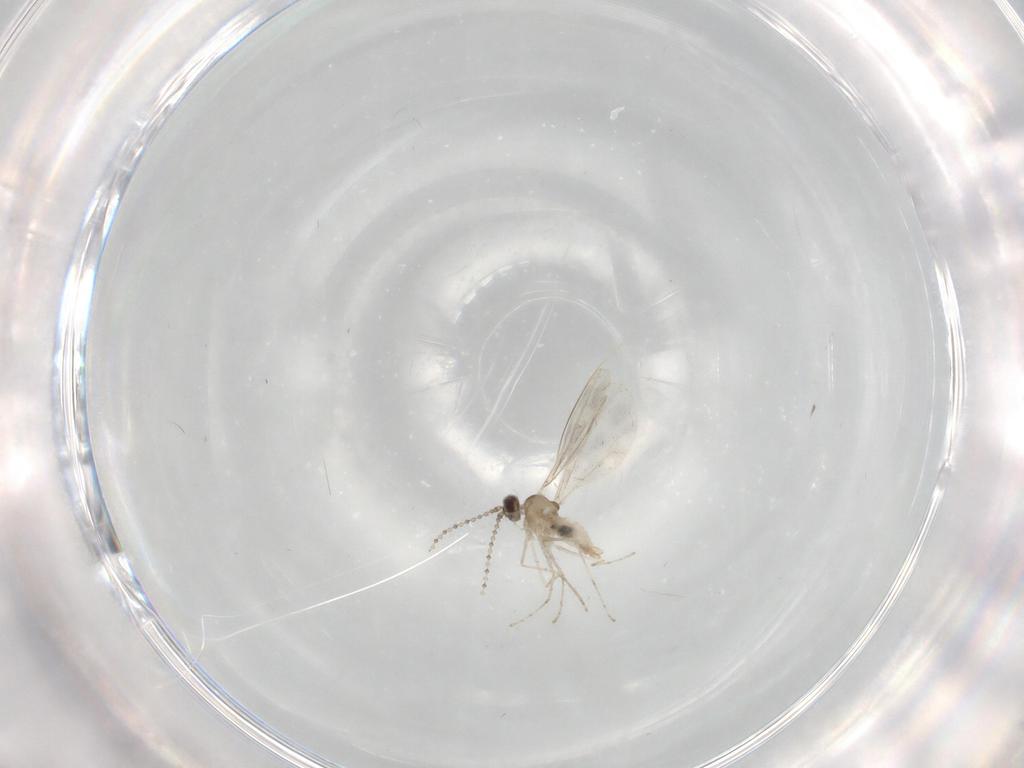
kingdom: Animalia
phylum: Arthropoda
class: Insecta
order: Diptera
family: Cecidomyiidae
